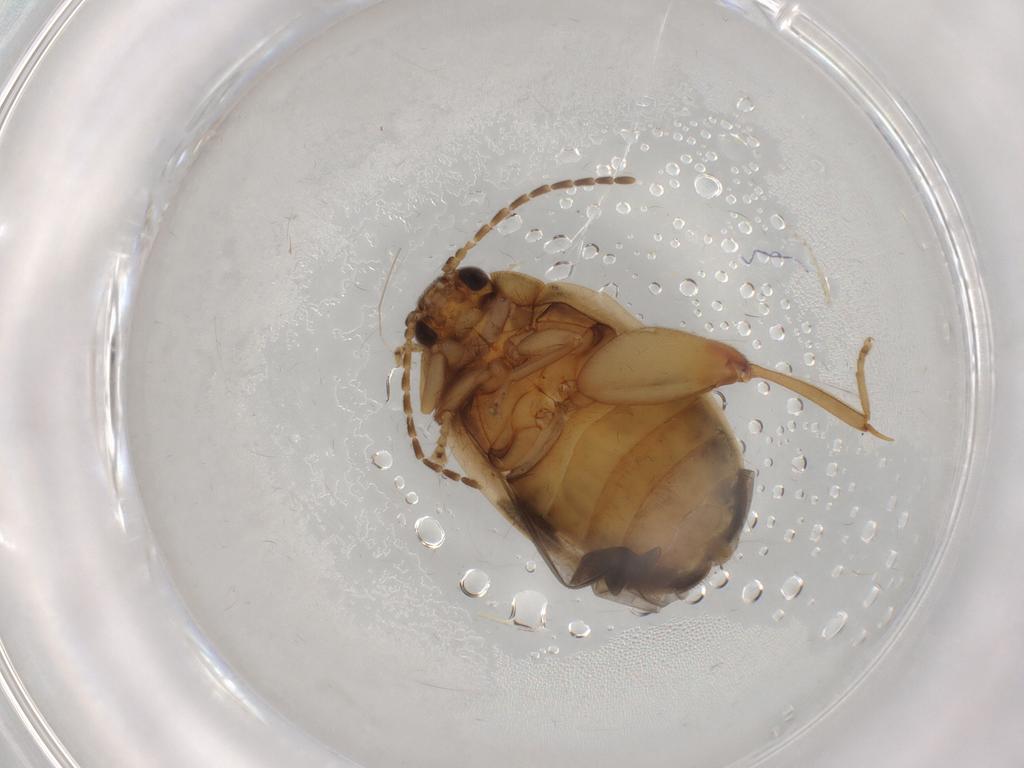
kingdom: Animalia
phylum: Arthropoda
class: Insecta
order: Coleoptera
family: Scirtidae
